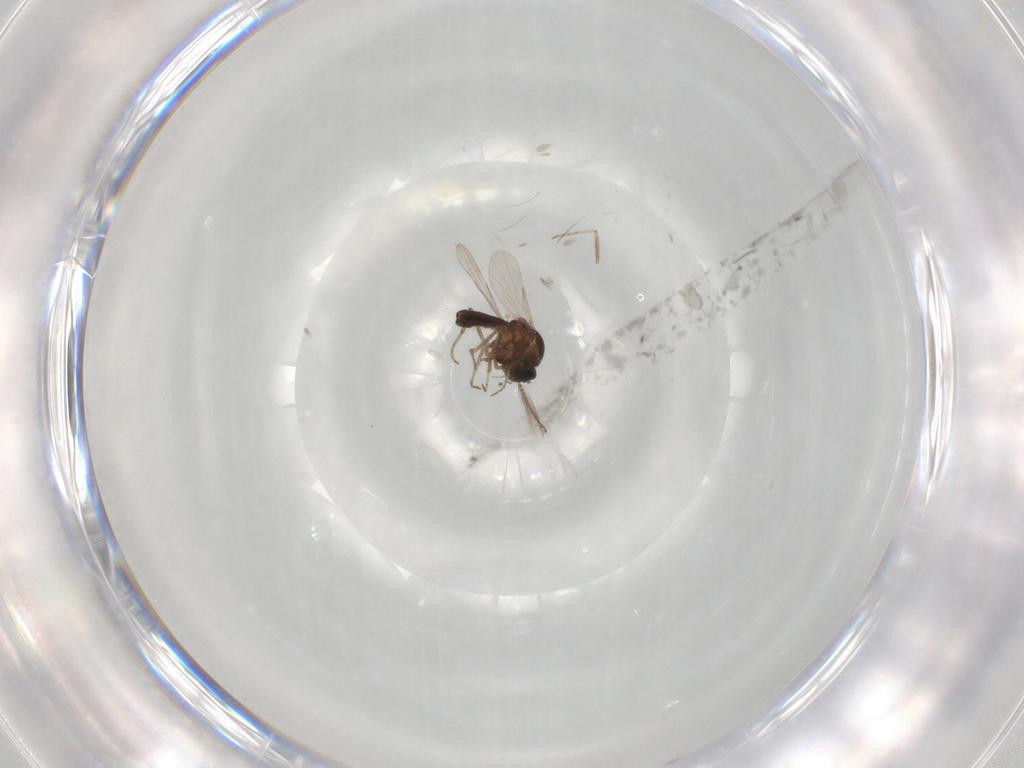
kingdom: Animalia
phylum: Arthropoda
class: Insecta
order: Diptera
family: Ceratopogonidae
